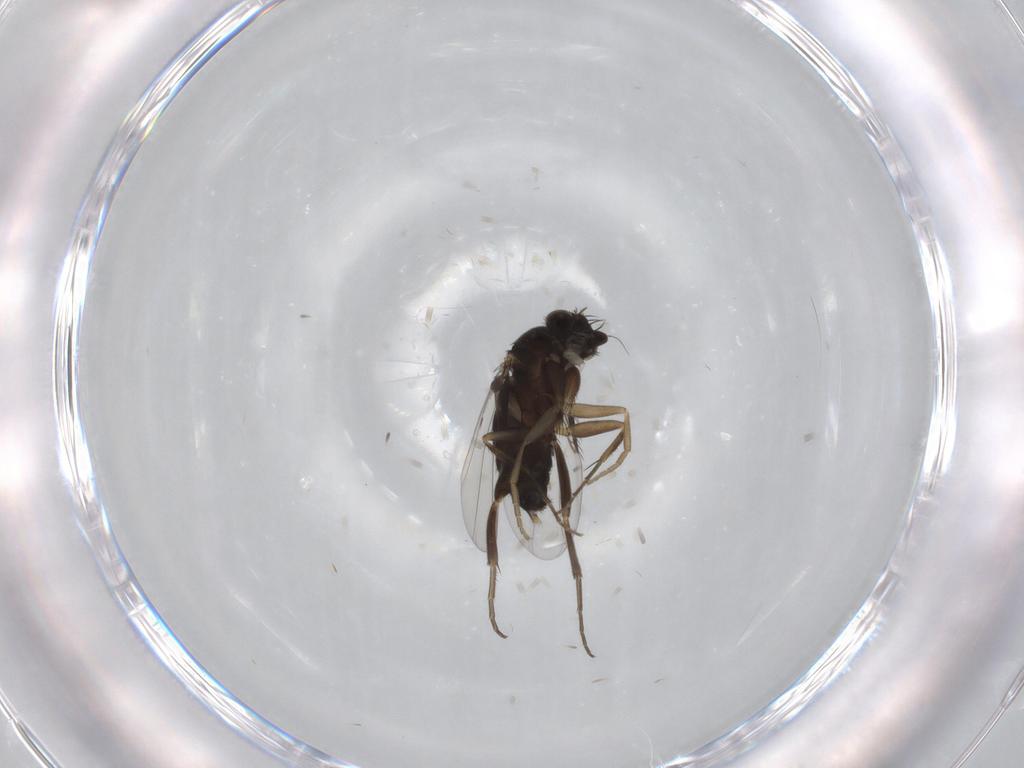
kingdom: Animalia
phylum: Arthropoda
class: Insecta
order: Diptera
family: Phoridae
